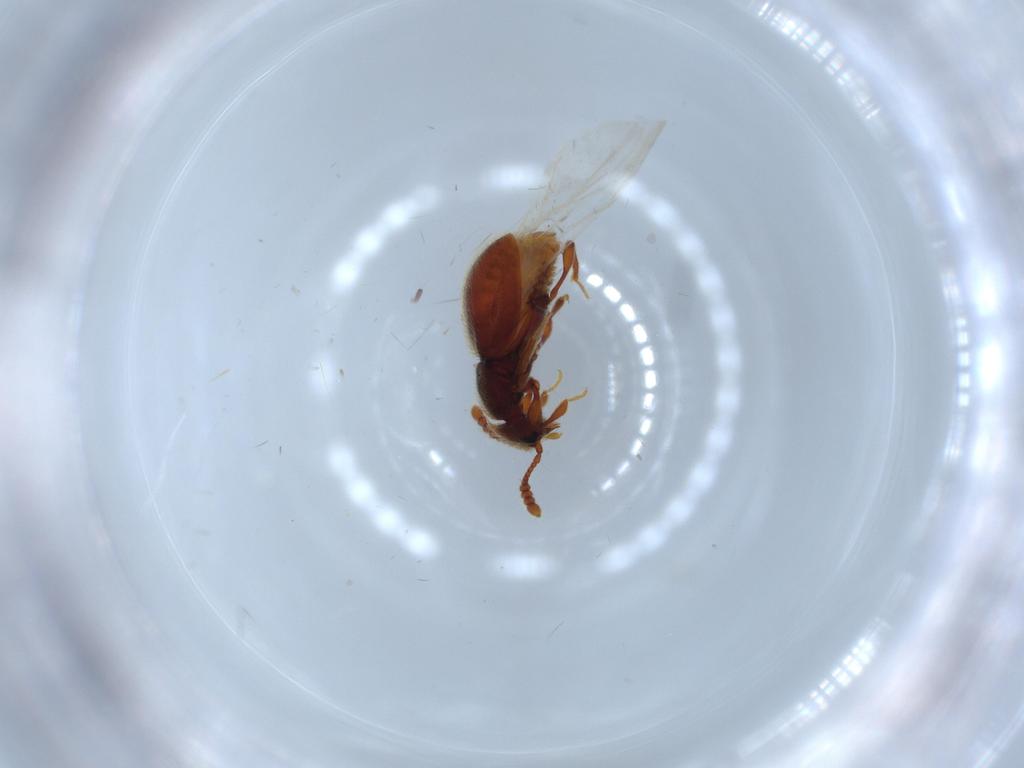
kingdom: Animalia
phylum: Arthropoda
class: Insecta
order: Coleoptera
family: Throscidae
